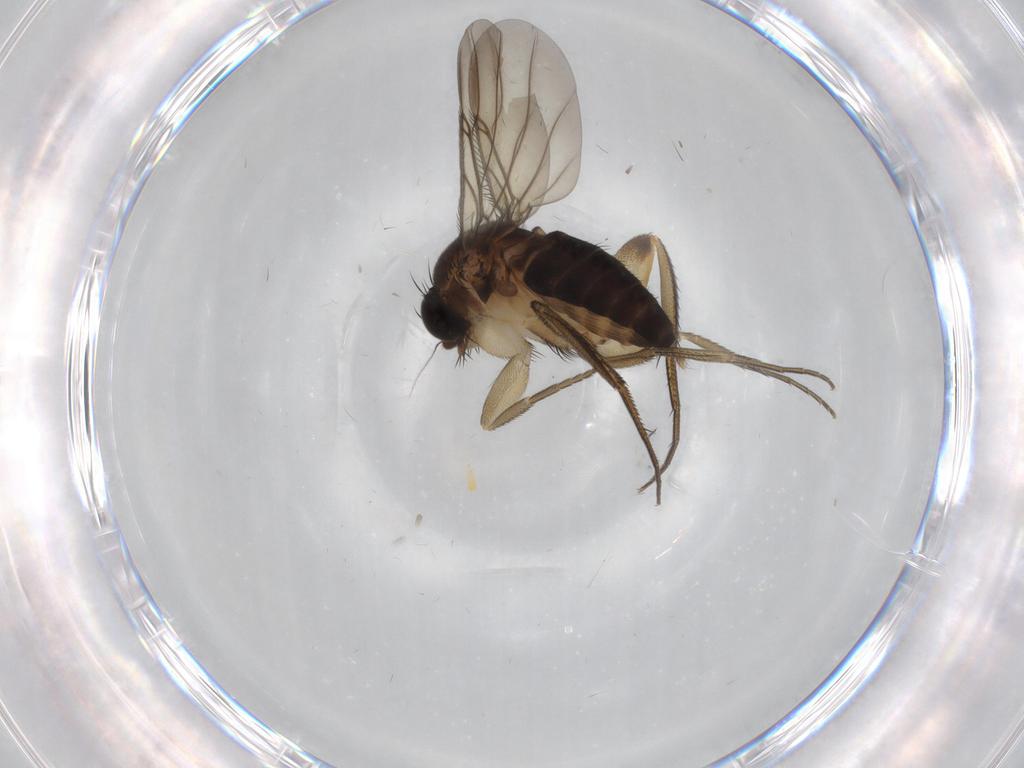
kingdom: Animalia
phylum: Arthropoda
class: Insecta
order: Diptera
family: Phoridae
